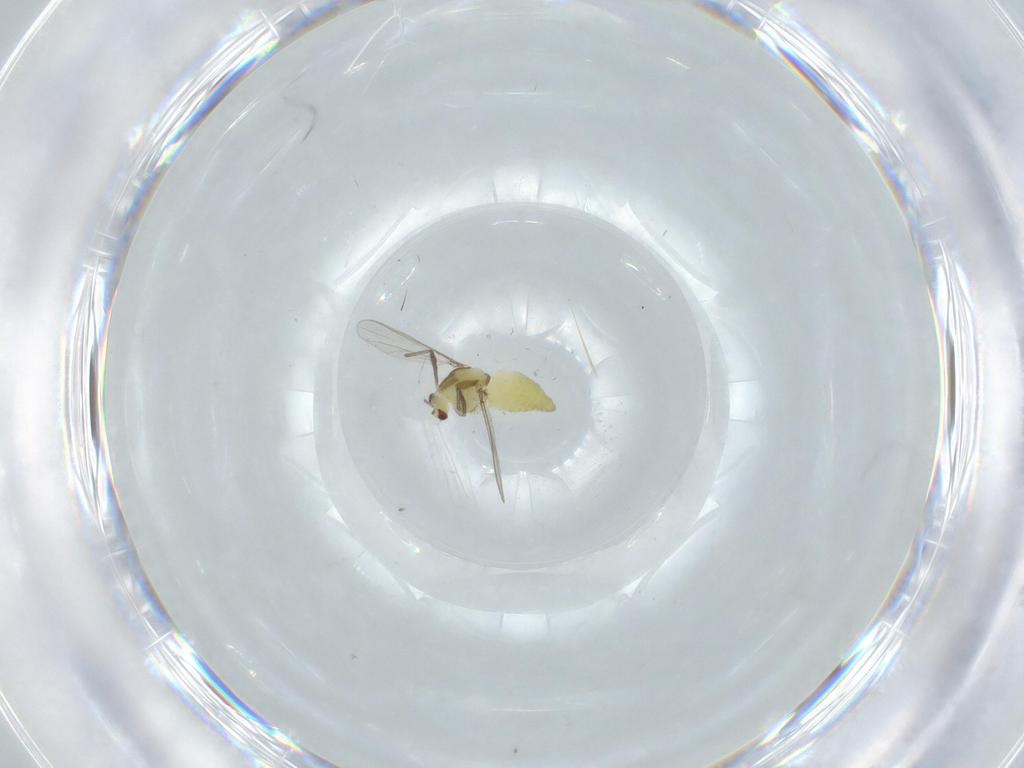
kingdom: Animalia
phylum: Arthropoda
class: Insecta
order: Diptera
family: Chironomidae
